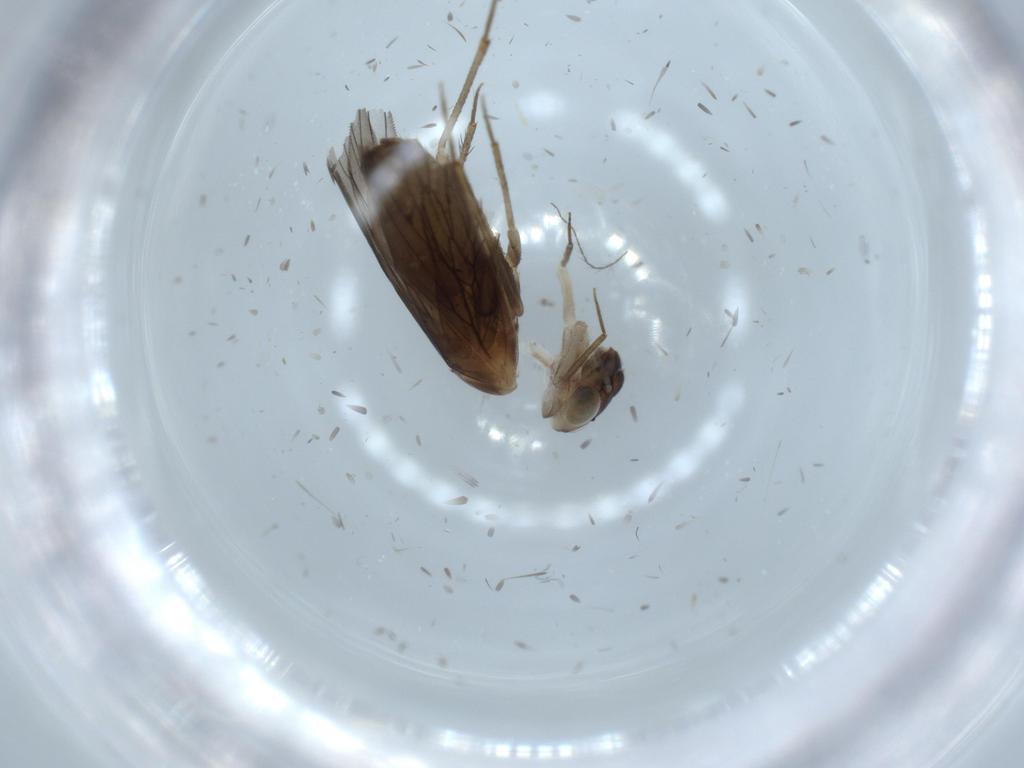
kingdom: Animalia
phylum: Arthropoda
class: Insecta
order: Psocodea
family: Lepidopsocidae
